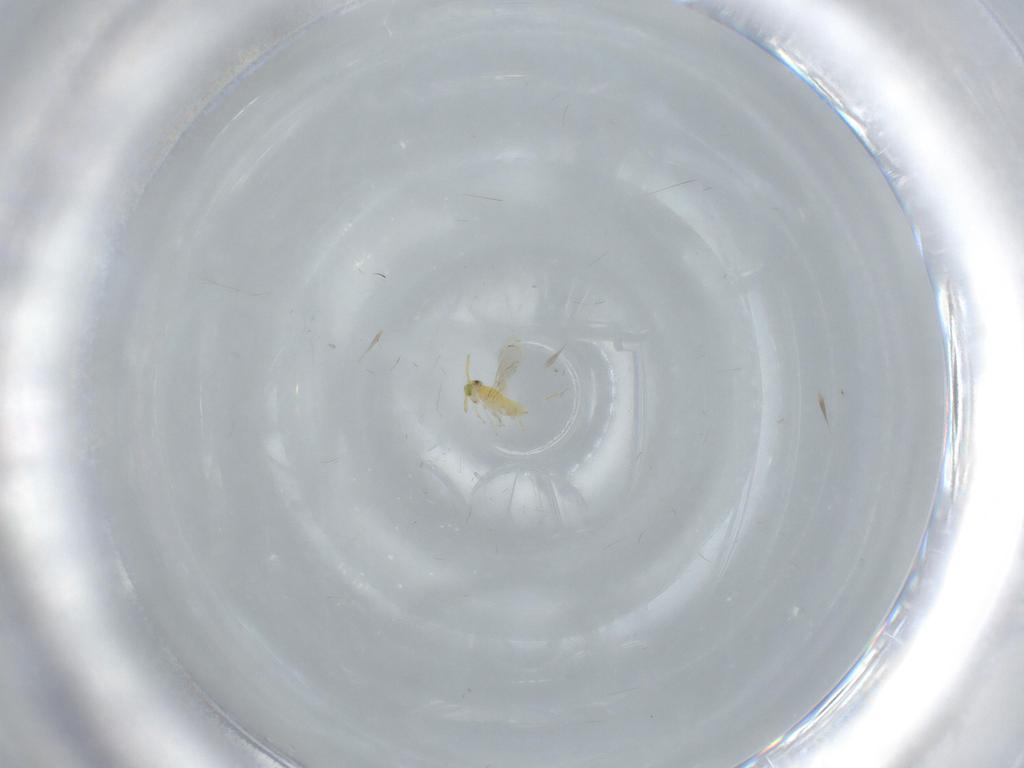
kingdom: Animalia
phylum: Arthropoda
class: Insecta
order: Hymenoptera
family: Aphelinidae
